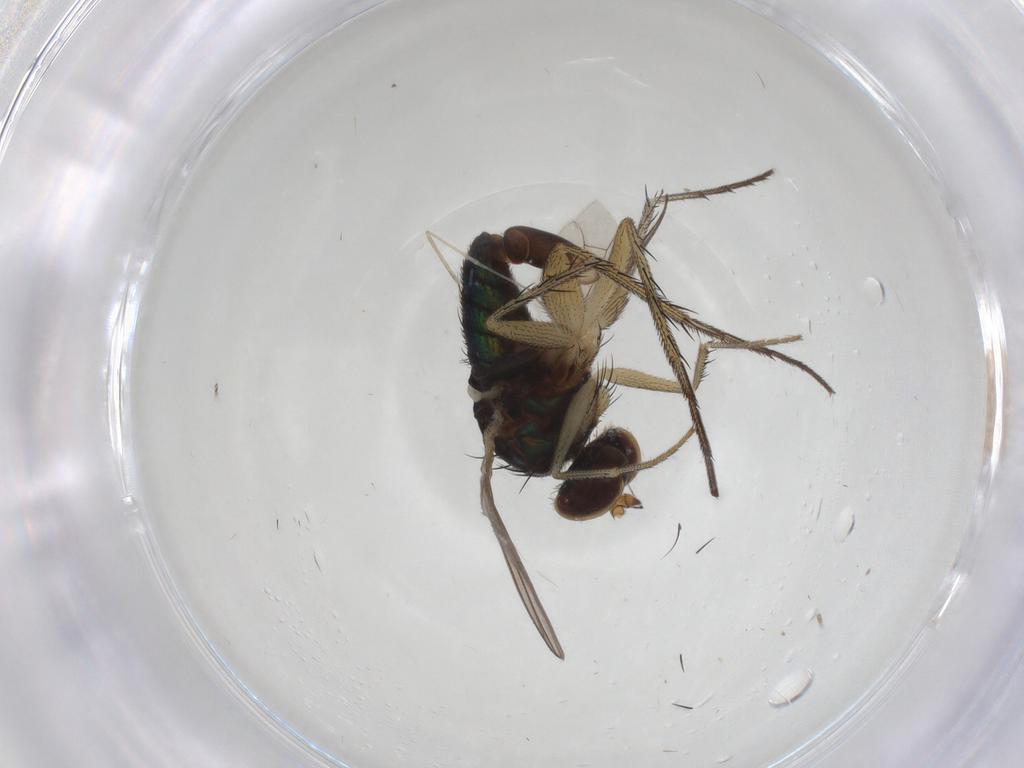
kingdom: Animalia
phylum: Arthropoda
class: Insecta
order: Diptera
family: Dolichopodidae
